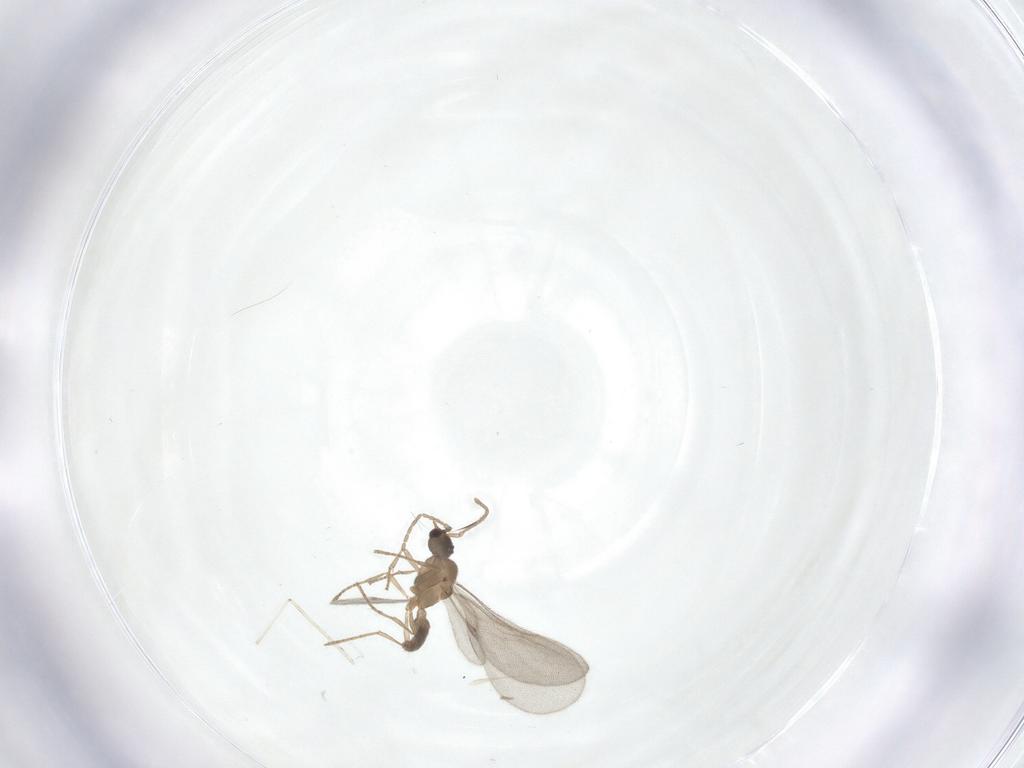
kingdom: Animalia
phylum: Arthropoda
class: Insecta
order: Hymenoptera
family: Formicidae
